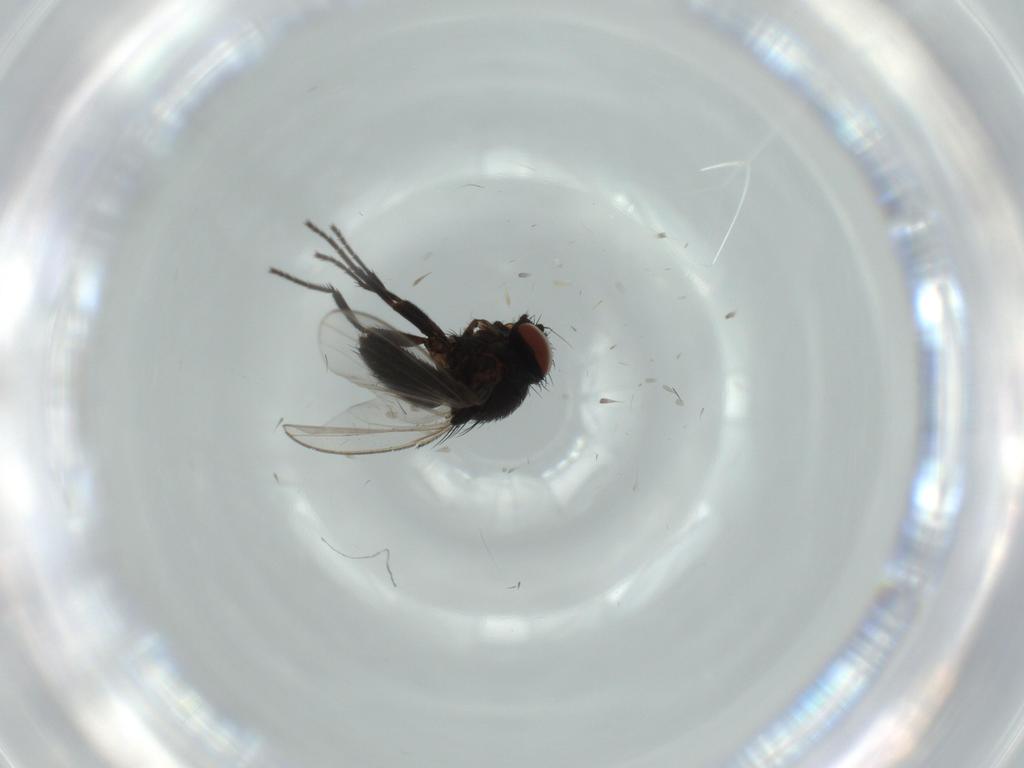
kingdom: Animalia
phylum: Arthropoda
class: Insecta
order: Diptera
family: Milichiidae
